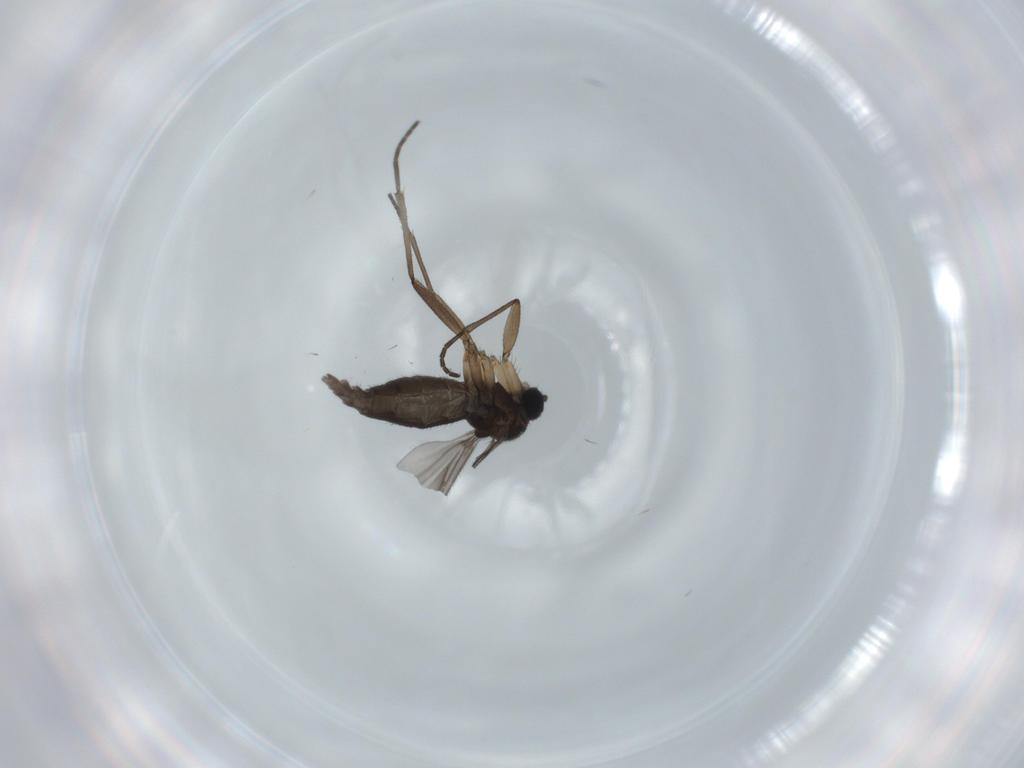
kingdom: Animalia
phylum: Arthropoda
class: Insecta
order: Diptera
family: Sciaridae
